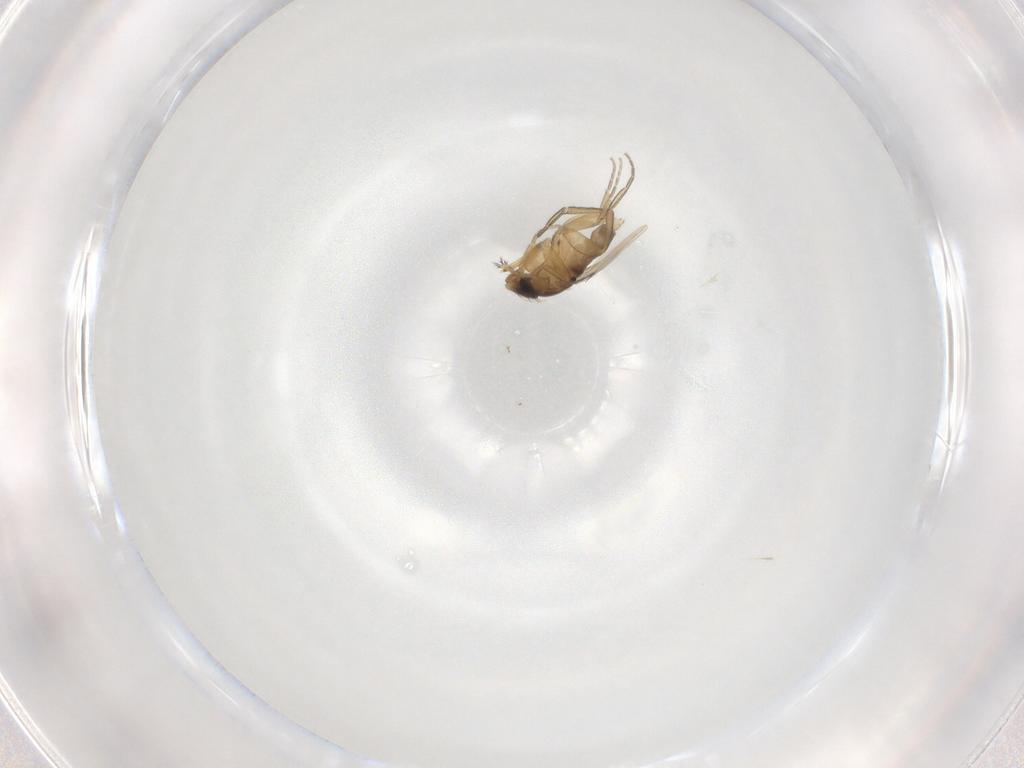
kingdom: Animalia
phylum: Arthropoda
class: Insecta
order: Diptera
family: Phoridae
